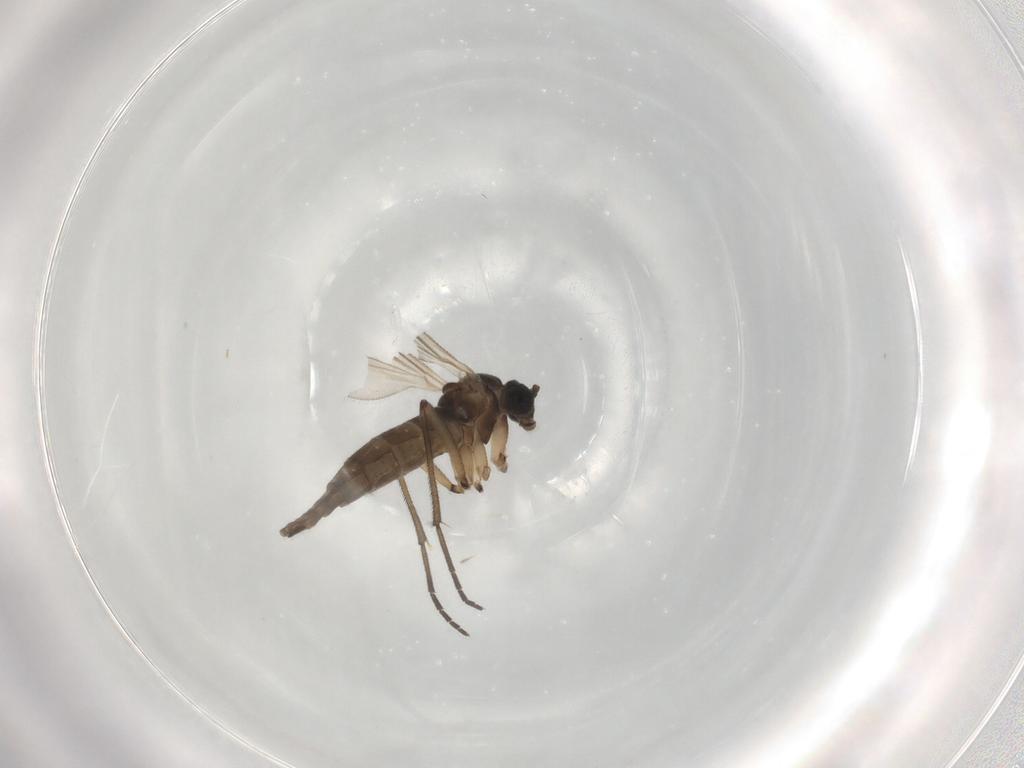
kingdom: Animalia
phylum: Arthropoda
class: Insecta
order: Diptera
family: Sciaridae
